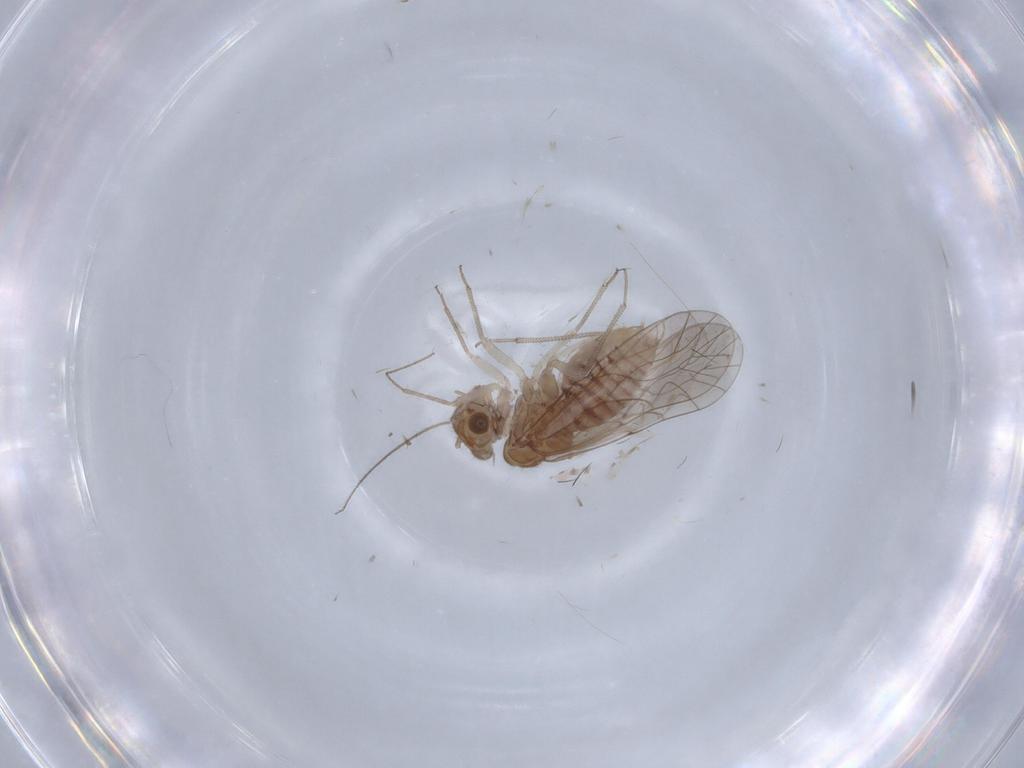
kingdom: Animalia
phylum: Arthropoda
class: Insecta
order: Psocodea
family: Lachesillidae
